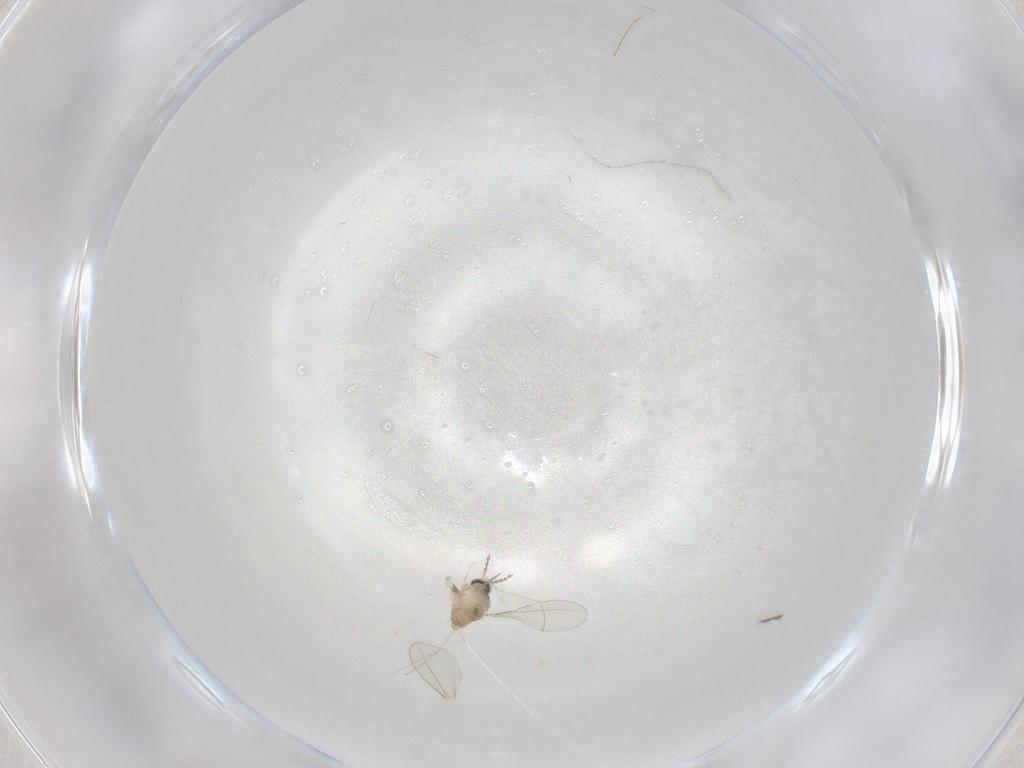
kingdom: Animalia
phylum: Arthropoda
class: Insecta
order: Diptera
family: Cecidomyiidae
